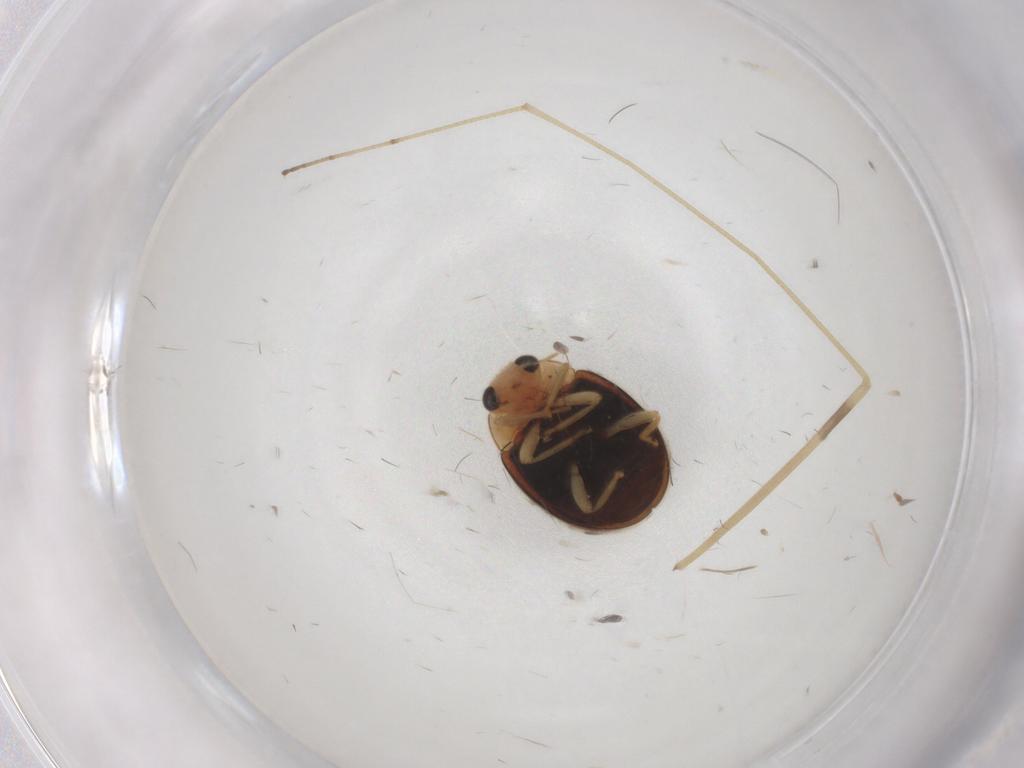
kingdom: Animalia
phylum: Arthropoda
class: Insecta
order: Coleoptera
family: Coccinellidae
